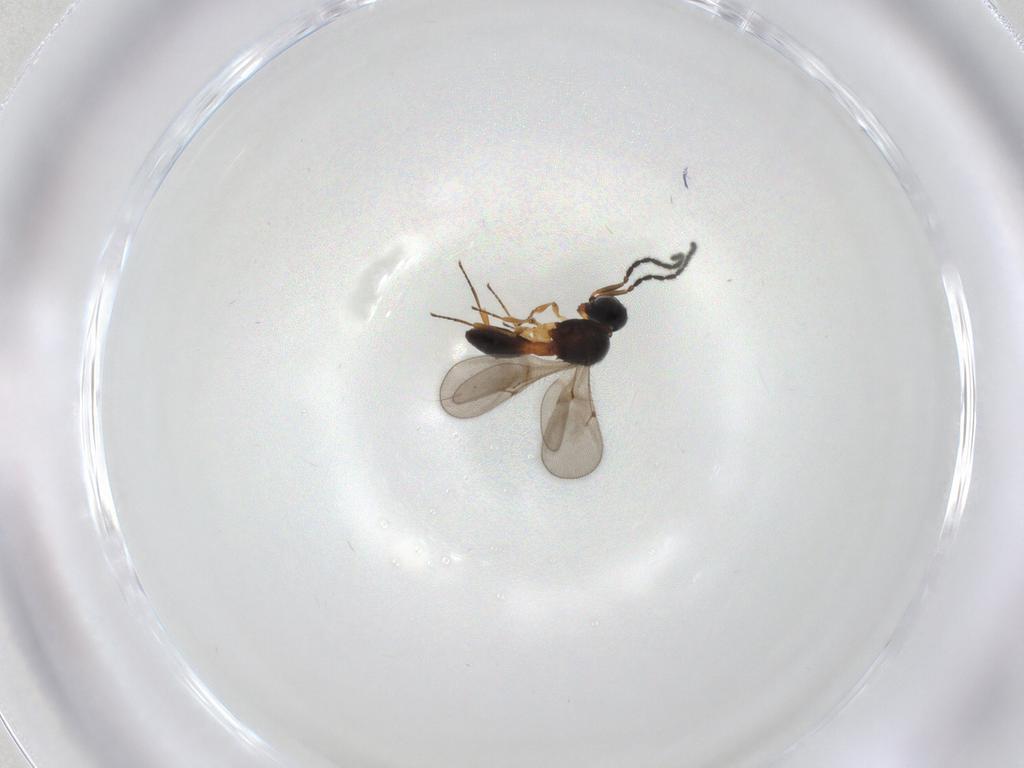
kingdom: Animalia
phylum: Arthropoda
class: Insecta
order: Hymenoptera
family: Scelionidae
